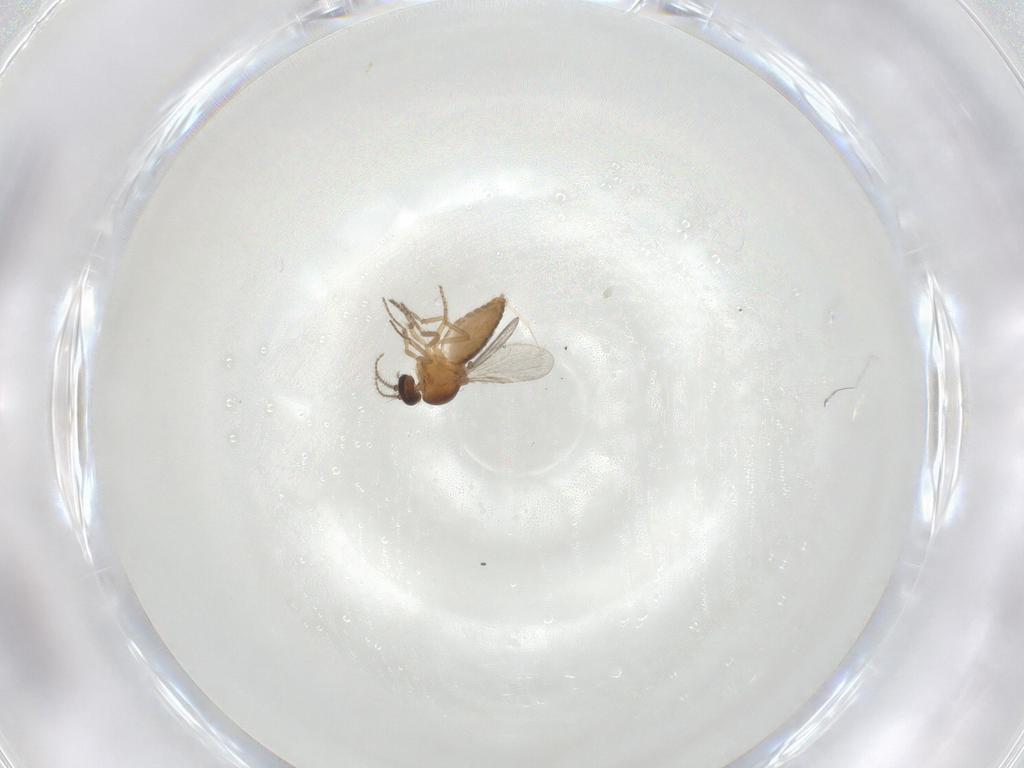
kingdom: Animalia
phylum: Arthropoda
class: Insecta
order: Diptera
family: Ceratopogonidae
